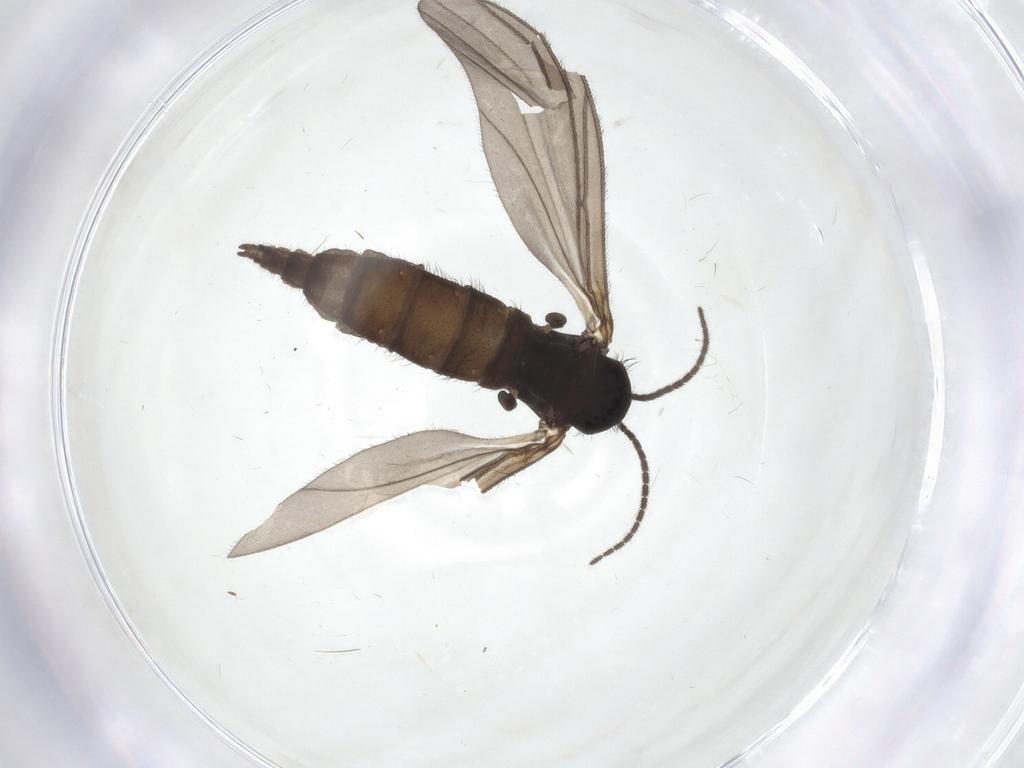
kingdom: Animalia
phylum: Arthropoda
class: Insecta
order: Diptera
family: Sciaridae
